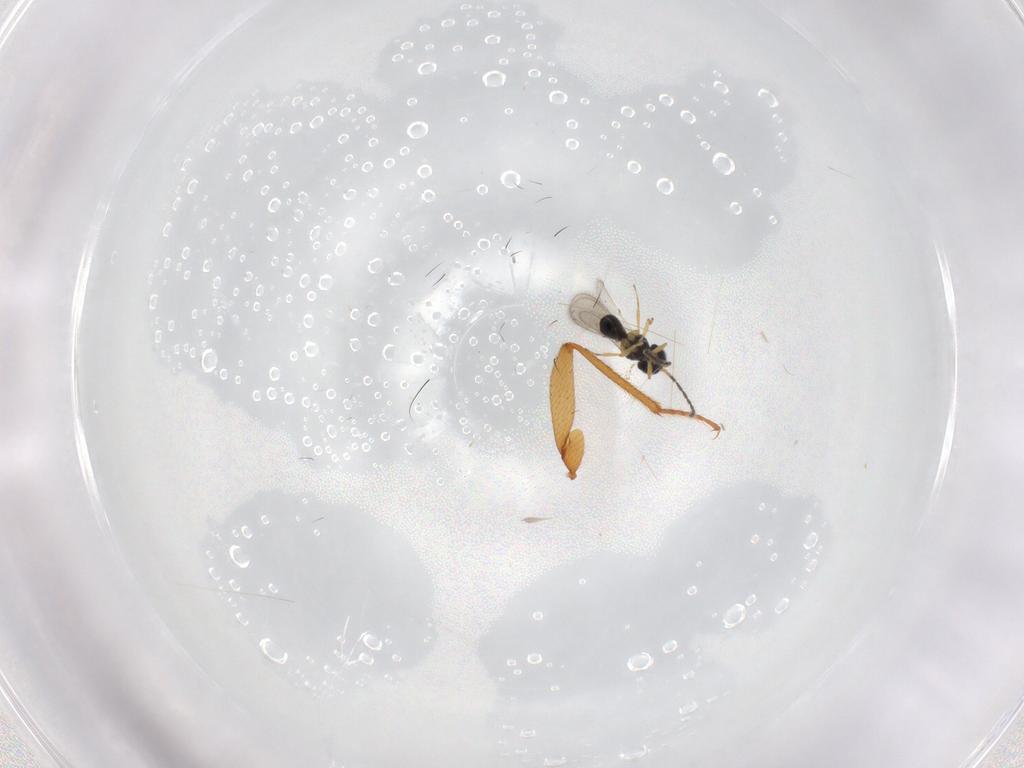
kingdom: Animalia
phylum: Arthropoda
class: Insecta
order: Hymenoptera
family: Scelionidae
